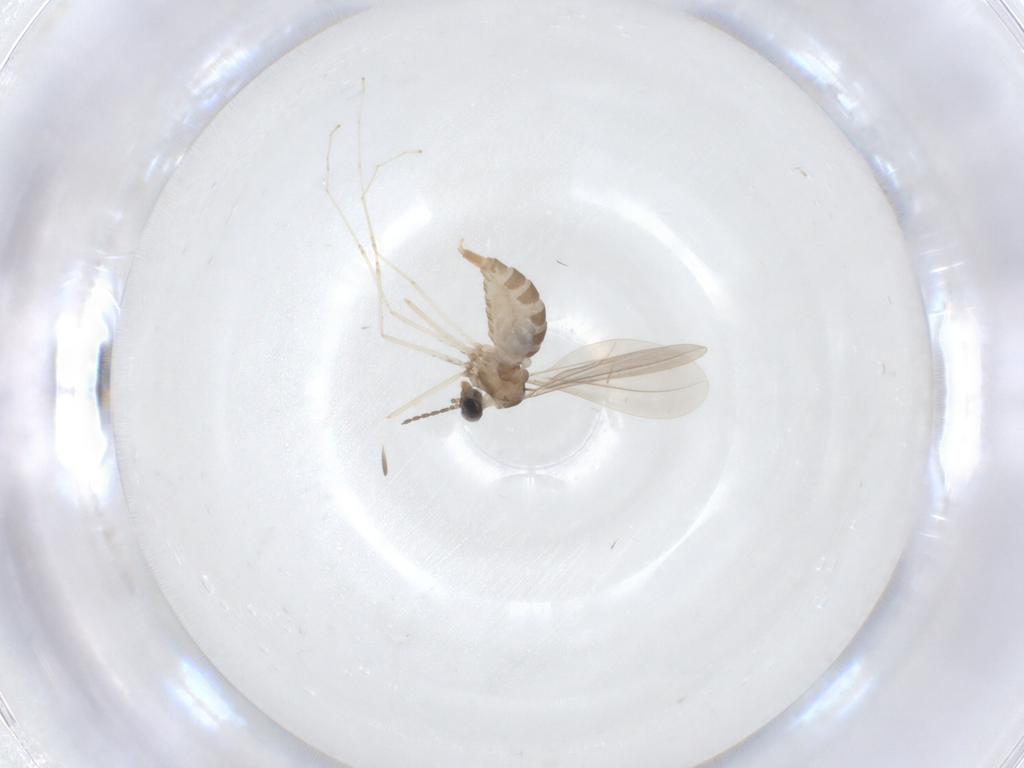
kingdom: Animalia
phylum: Arthropoda
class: Insecta
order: Diptera
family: Cecidomyiidae
